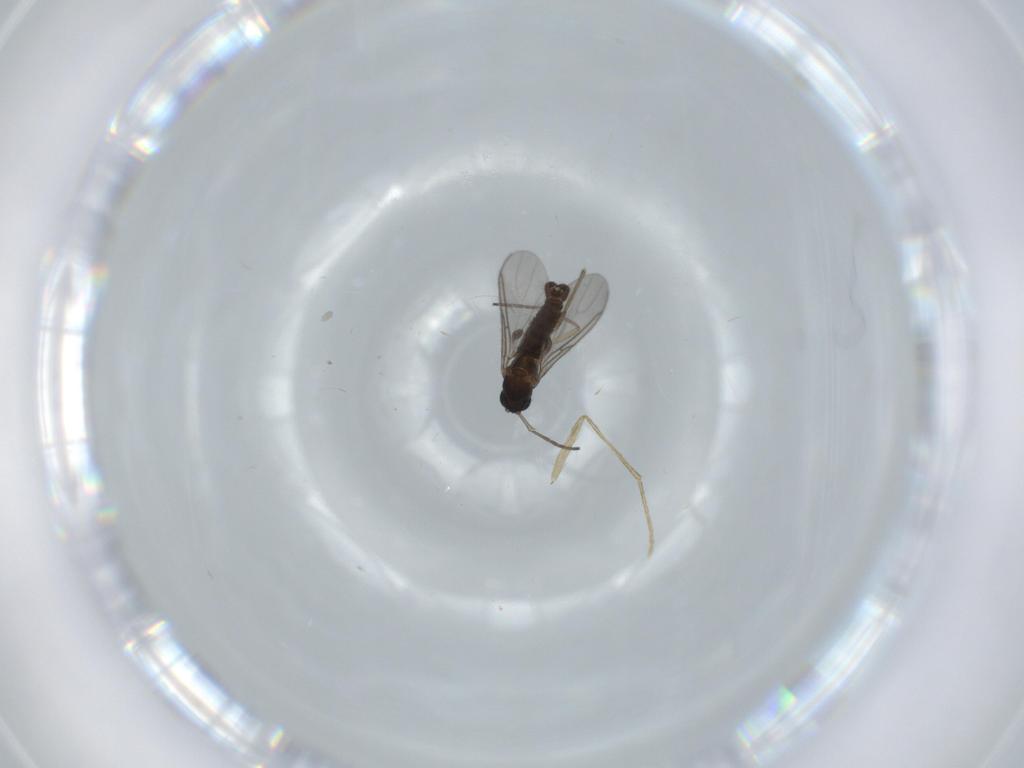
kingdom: Animalia
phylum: Arthropoda
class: Insecta
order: Diptera
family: Sciaridae
